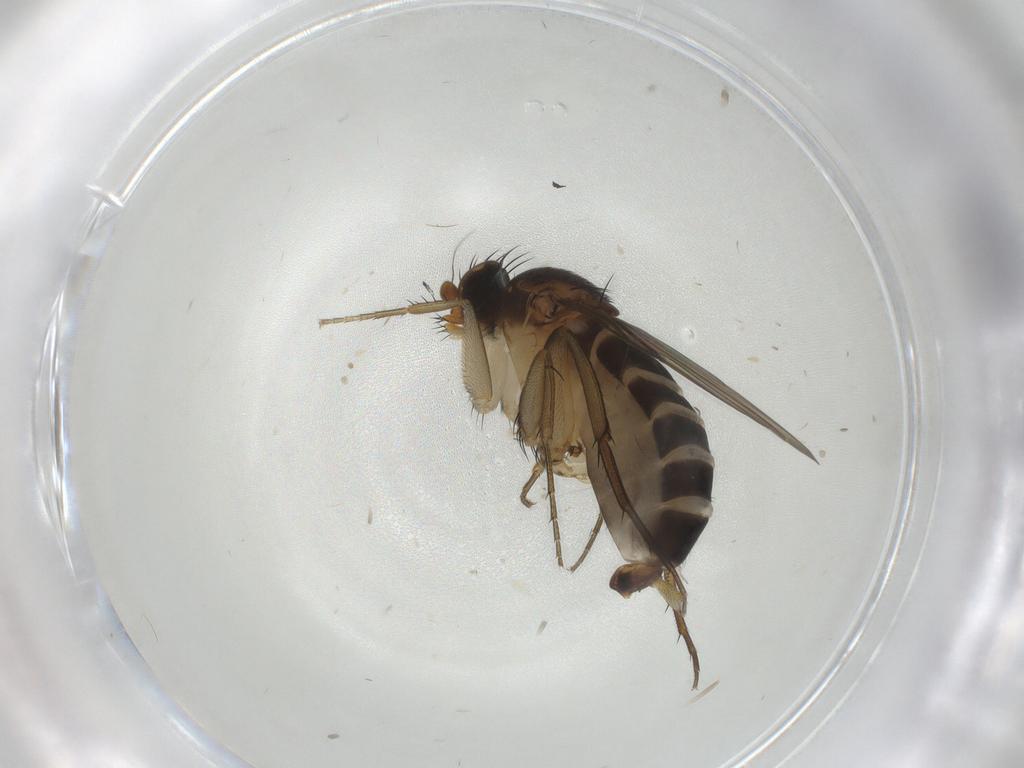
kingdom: Animalia
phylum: Arthropoda
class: Insecta
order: Diptera
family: Phoridae
